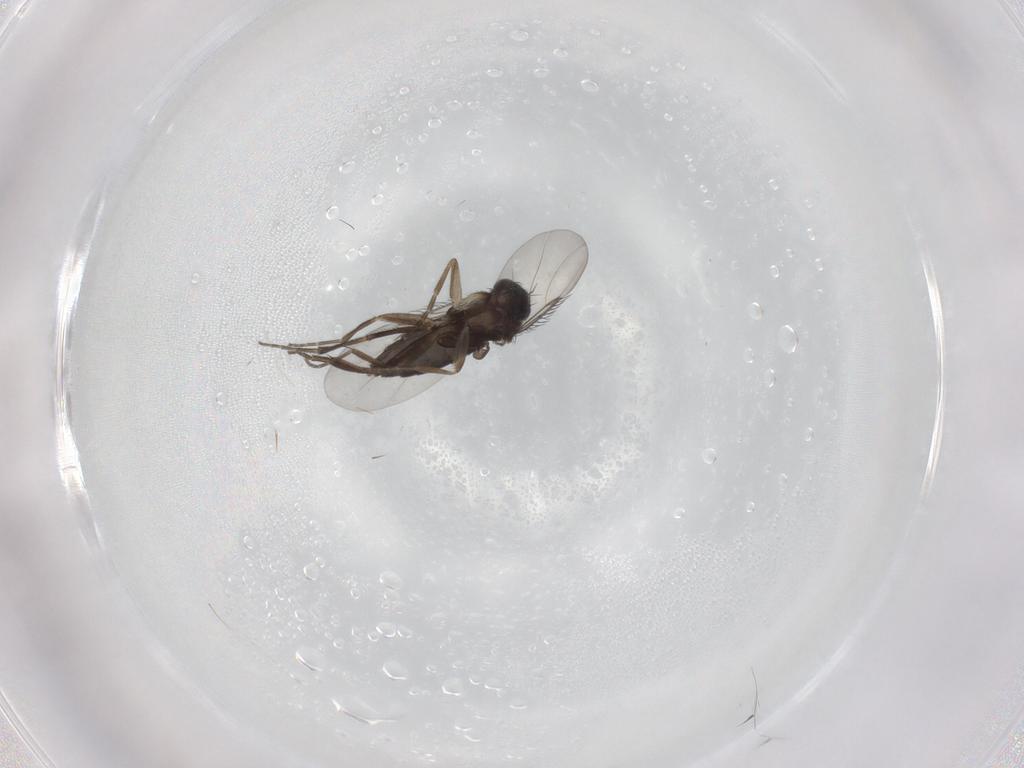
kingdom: Animalia
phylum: Arthropoda
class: Insecta
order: Diptera
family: Phoridae
